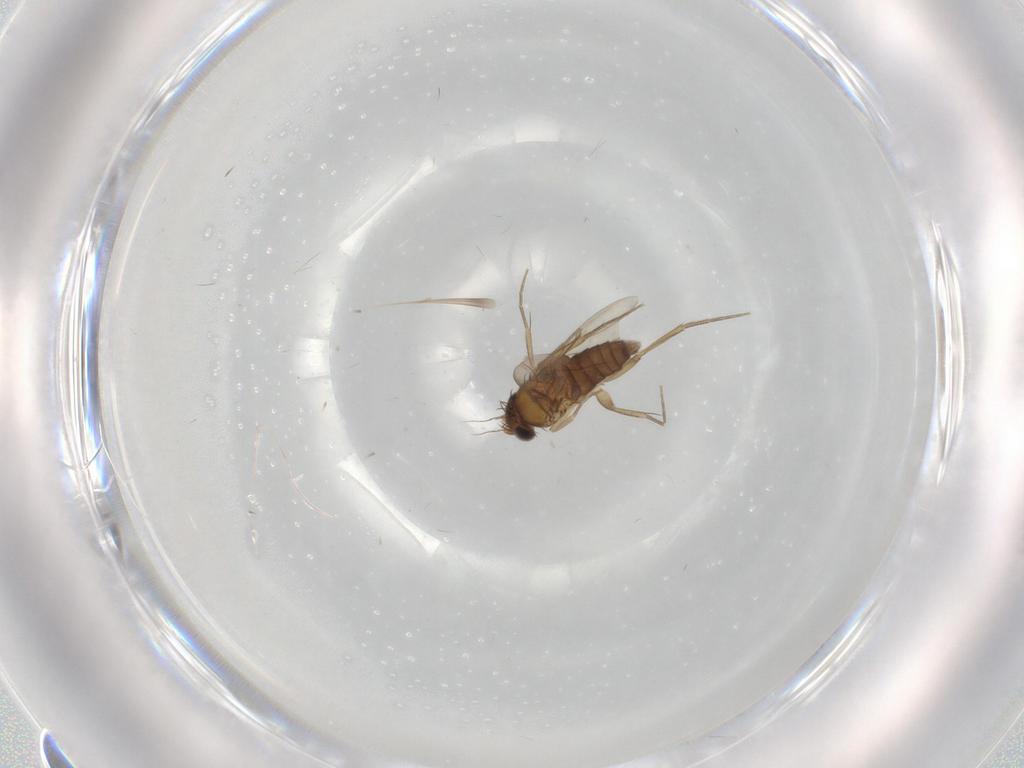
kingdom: Animalia
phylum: Arthropoda
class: Insecta
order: Diptera
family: Phoridae
